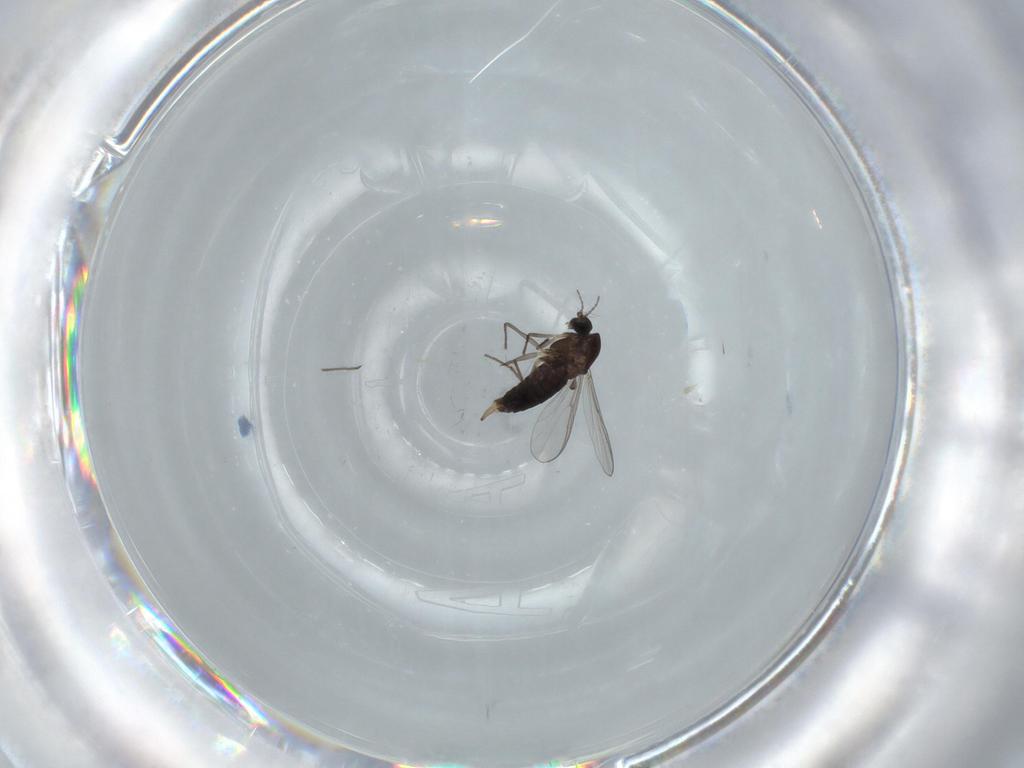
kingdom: Animalia
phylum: Arthropoda
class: Insecta
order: Diptera
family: Agromyzidae
